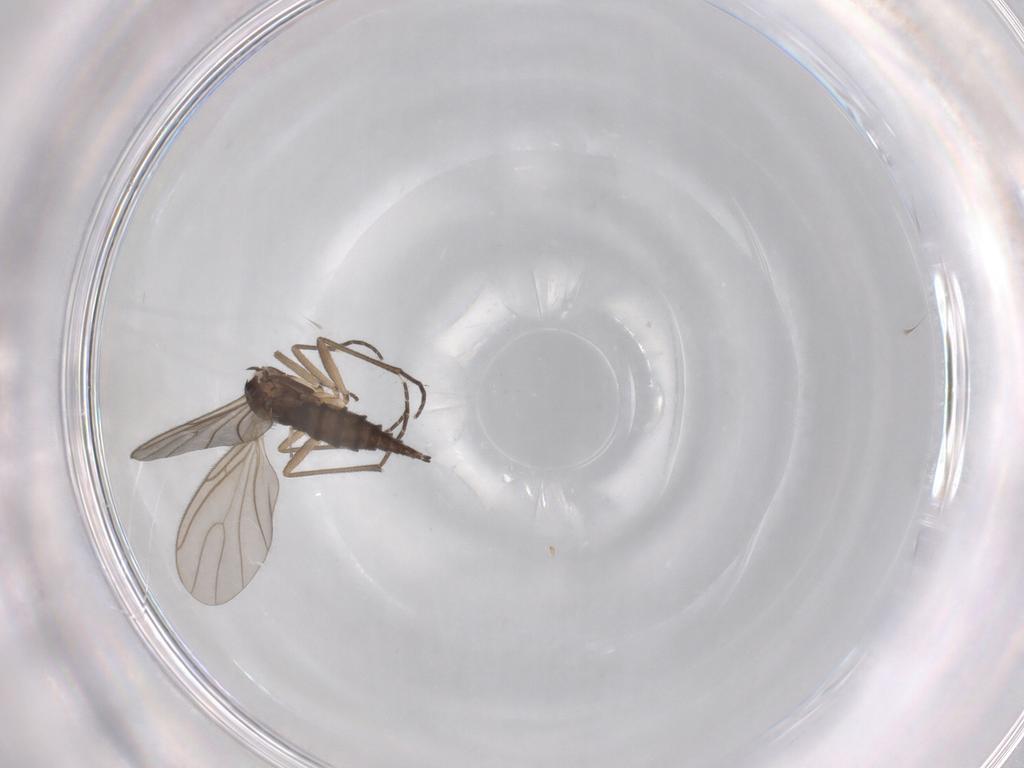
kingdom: Animalia
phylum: Arthropoda
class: Insecta
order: Diptera
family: Sciaridae
